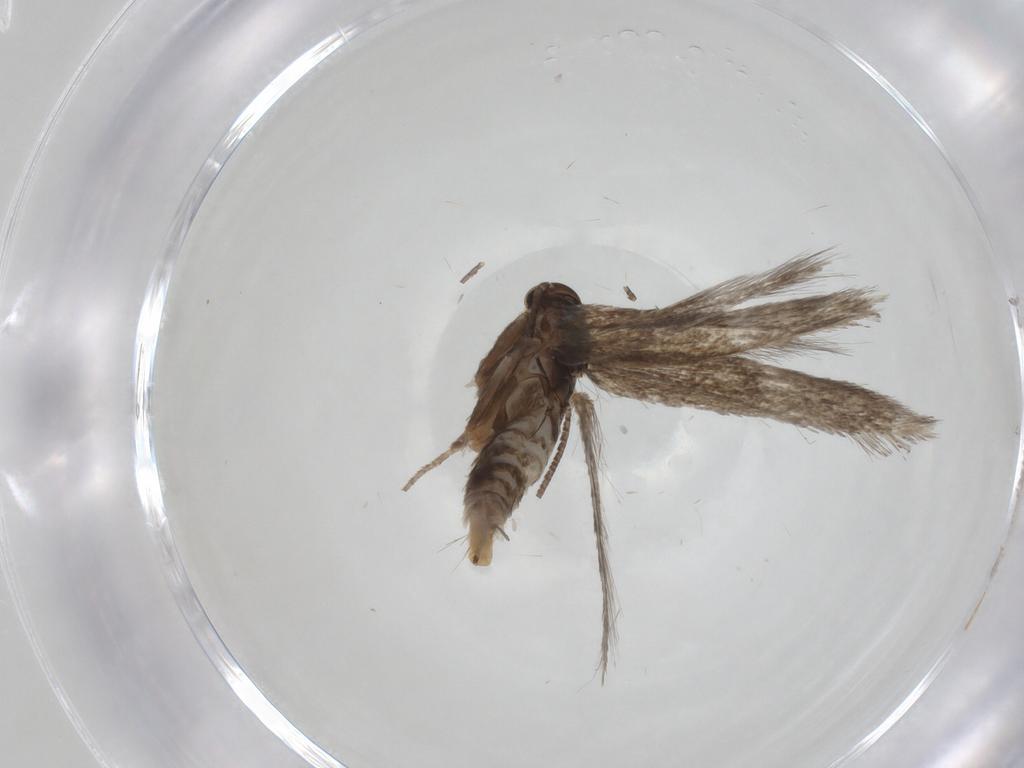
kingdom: Animalia
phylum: Arthropoda
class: Insecta
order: Lepidoptera
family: Elachistidae
